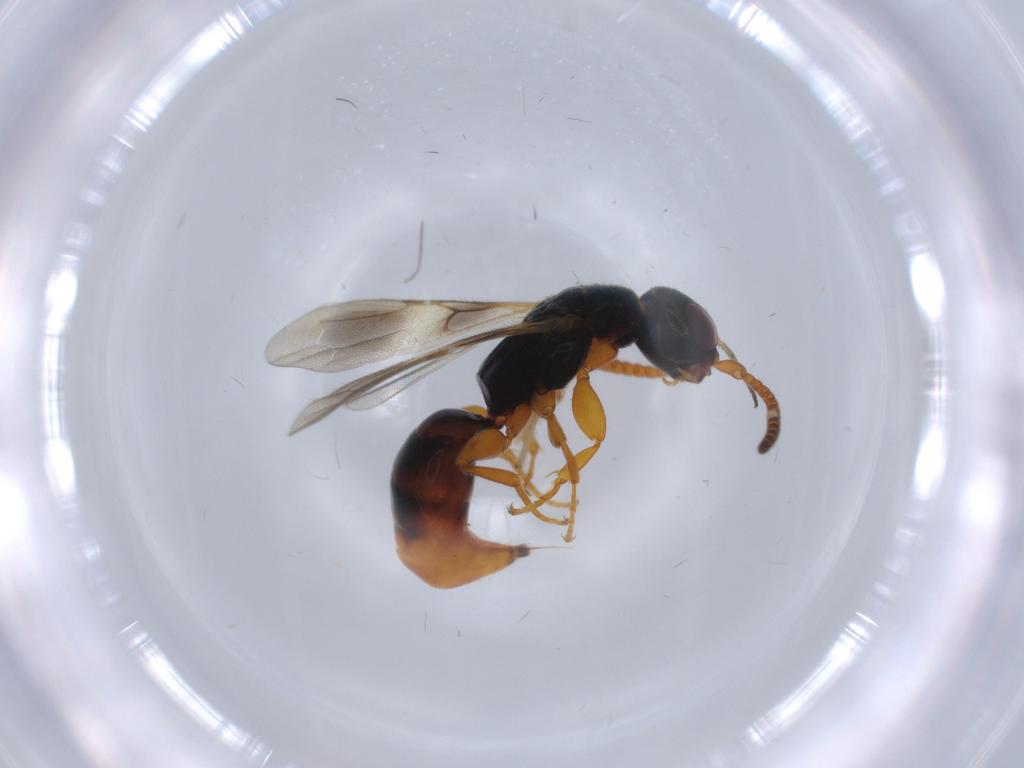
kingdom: Animalia
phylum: Arthropoda
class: Insecta
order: Hymenoptera
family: Bethylidae
